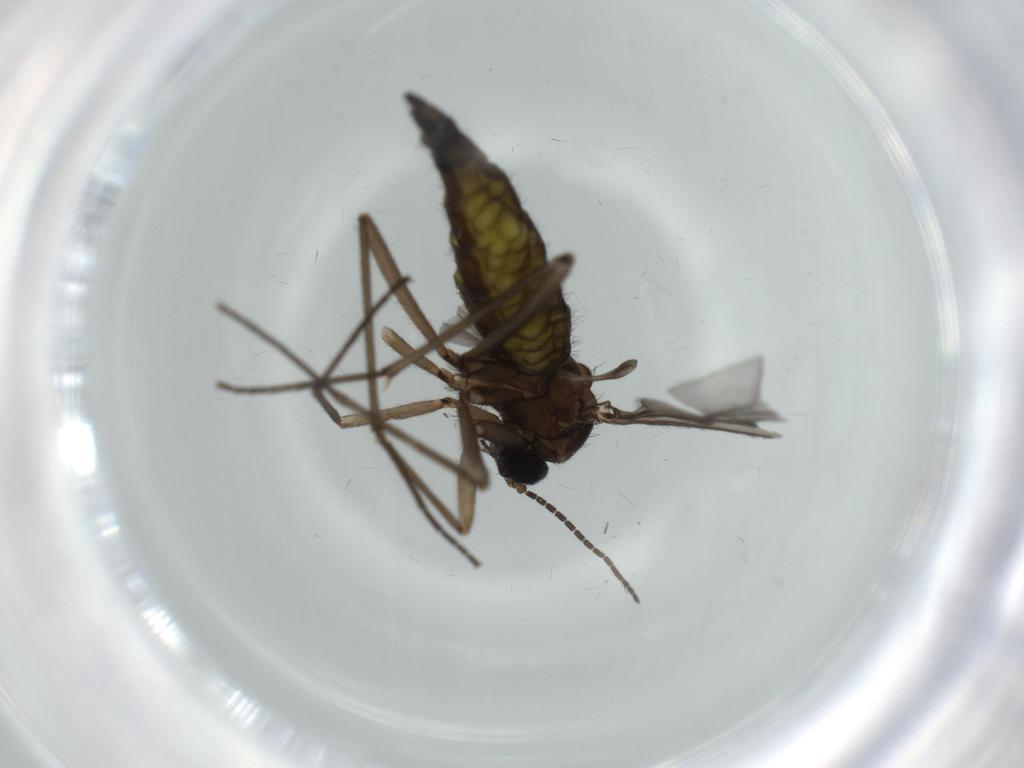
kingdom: Animalia
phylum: Arthropoda
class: Insecta
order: Diptera
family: Sciaridae
